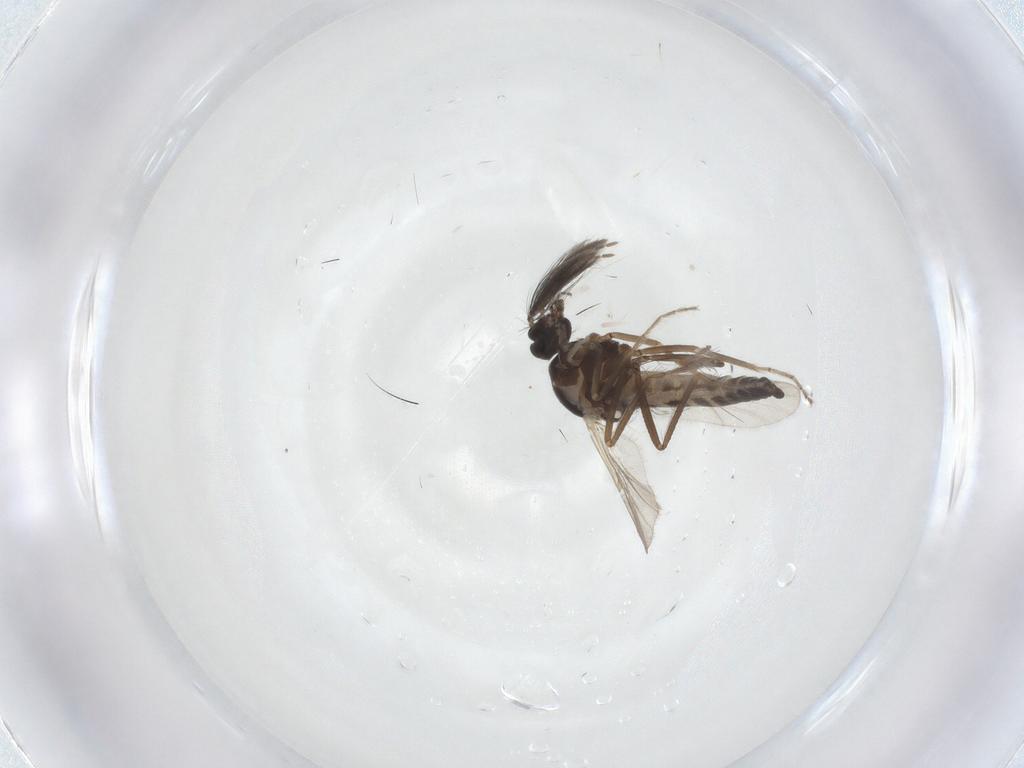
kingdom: Animalia
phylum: Arthropoda
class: Insecta
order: Diptera
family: Ceratopogonidae
